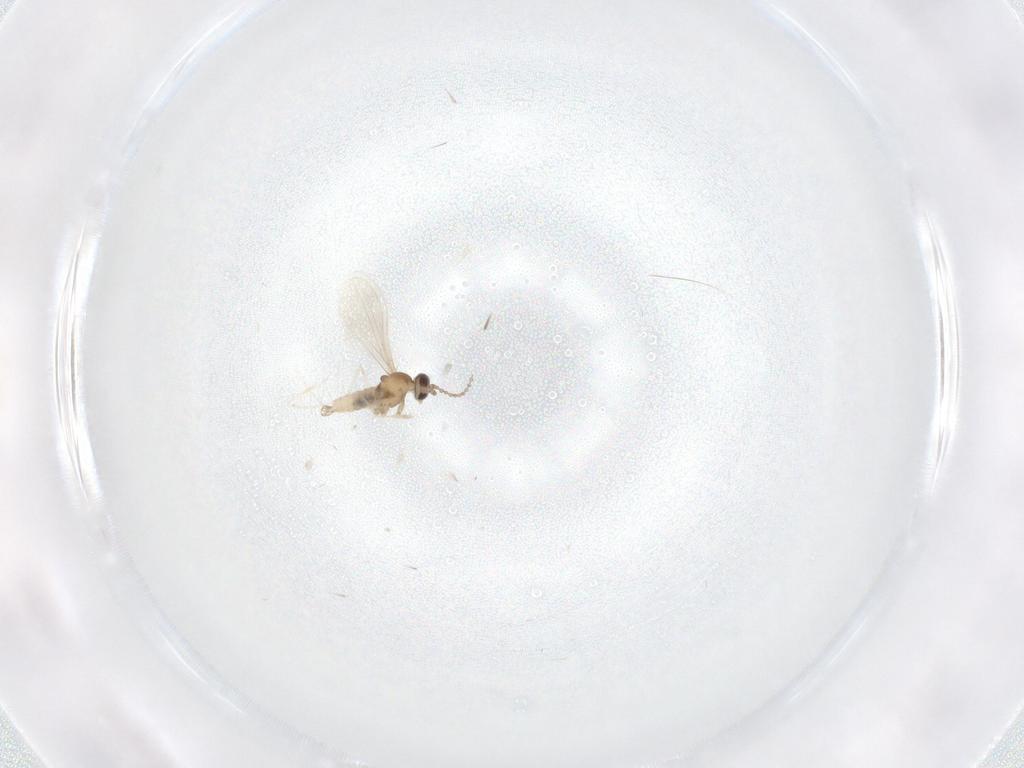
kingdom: Animalia
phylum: Arthropoda
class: Insecta
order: Diptera
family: Cecidomyiidae
